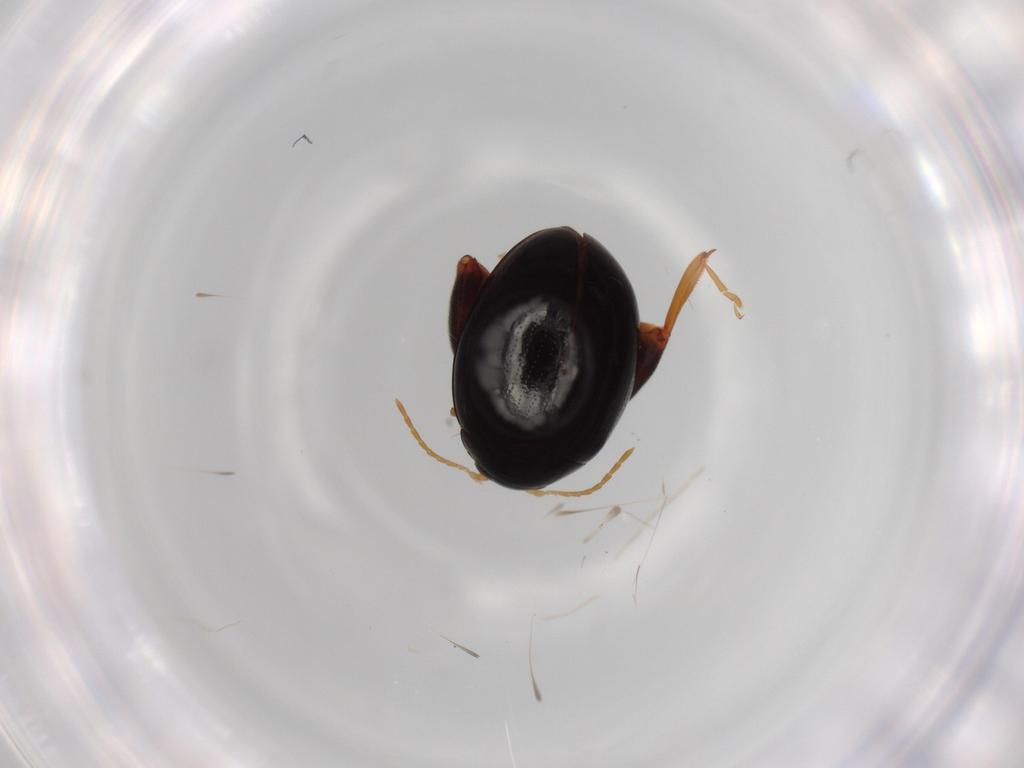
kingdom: Animalia
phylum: Arthropoda
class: Insecta
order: Coleoptera
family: Chrysomelidae
